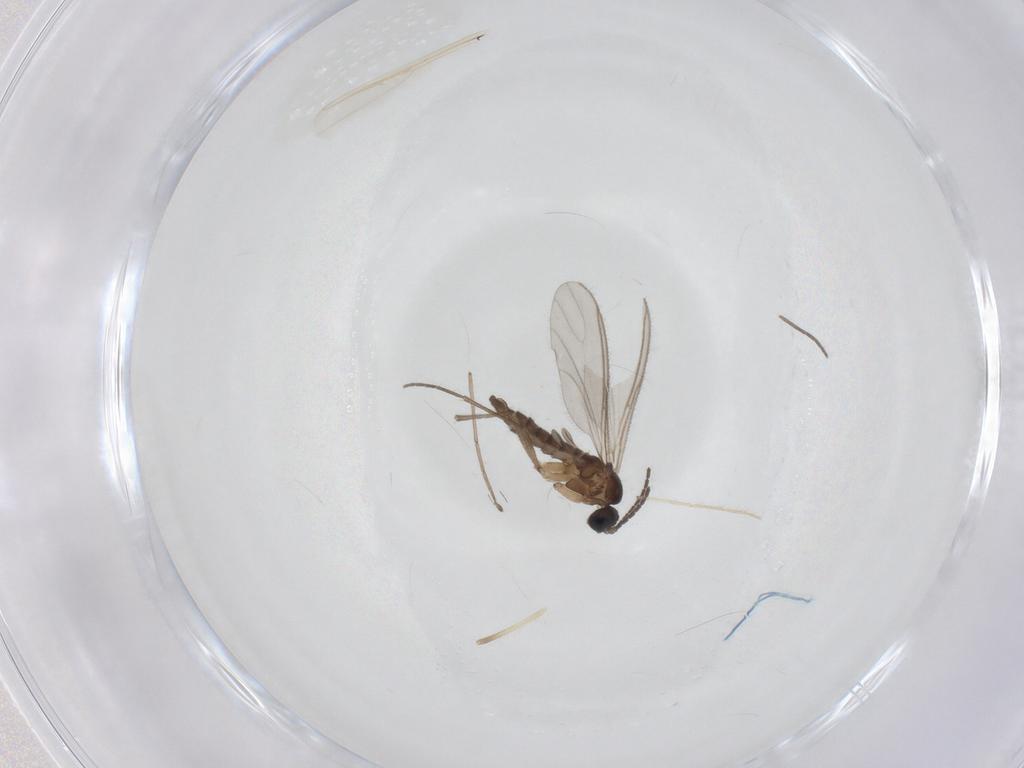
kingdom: Animalia
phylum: Arthropoda
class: Insecta
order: Diptera
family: Sciaridae
